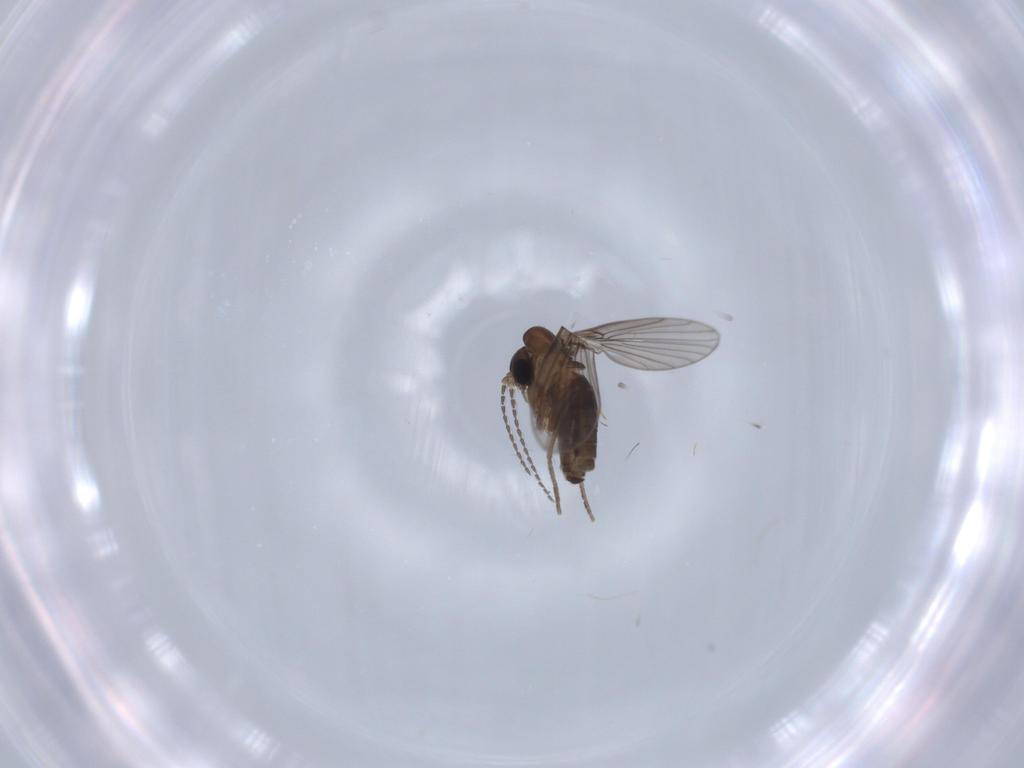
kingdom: Animalia
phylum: Arthropoda
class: Insecta
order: Diptera
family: Psychodidae
